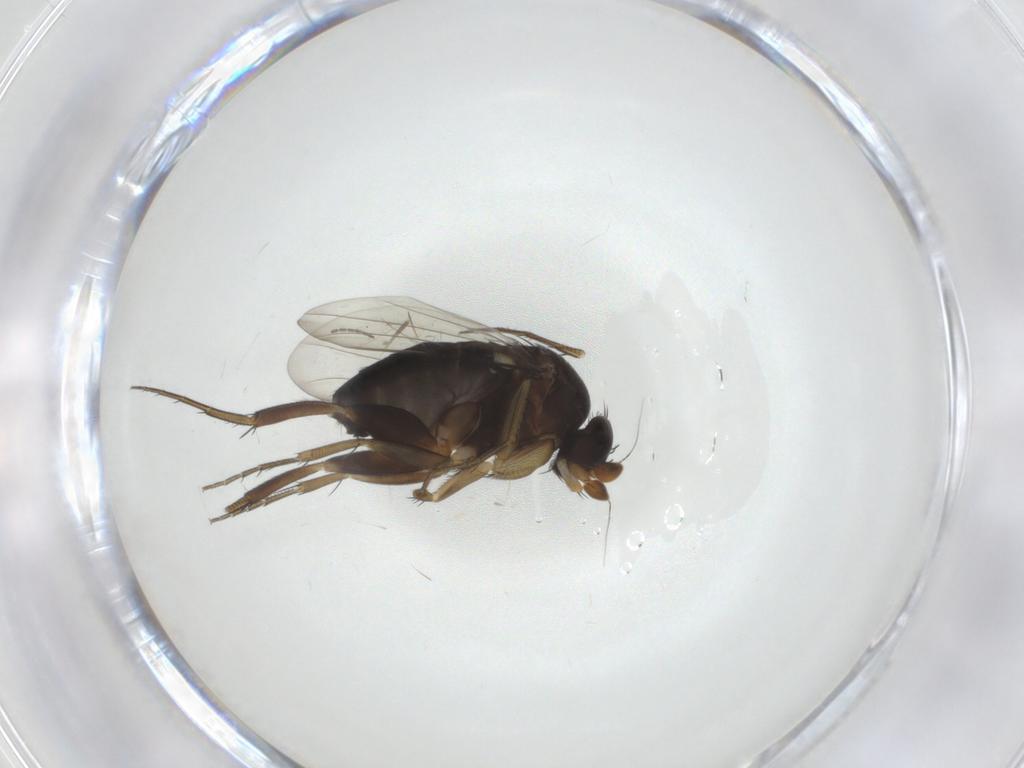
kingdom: Animalia
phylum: Arthropoda
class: Insecta
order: Diptera
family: Phoridae
